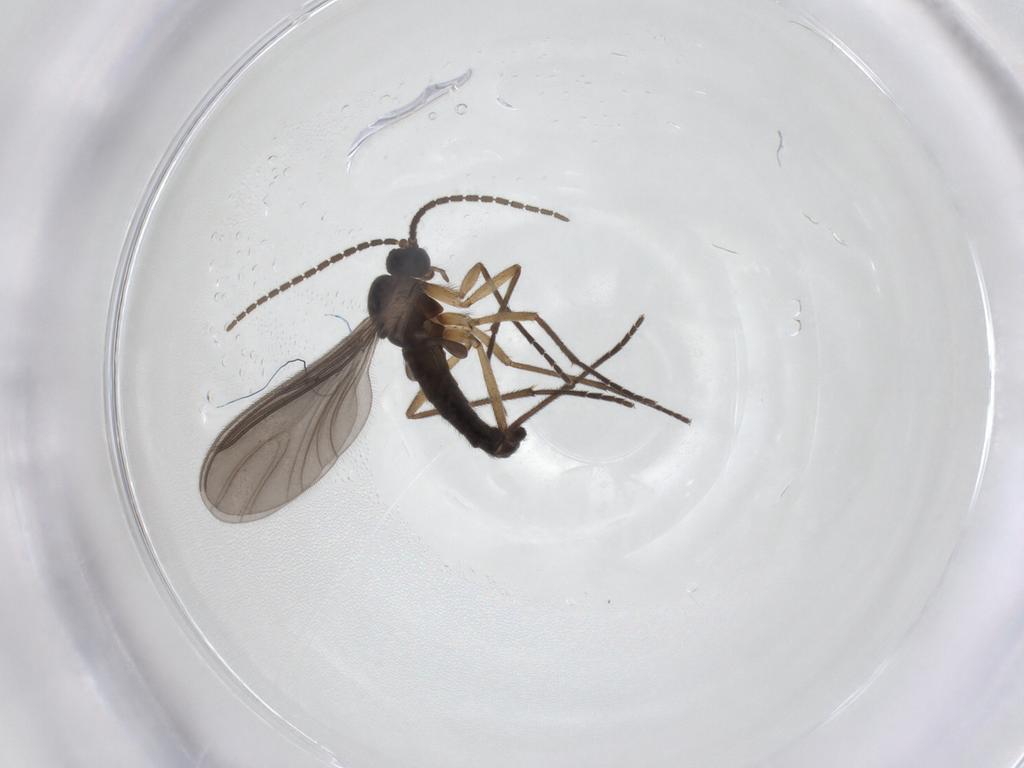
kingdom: Animalia
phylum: Arthropoda
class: Insecta
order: Diptera
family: Sciaridae
